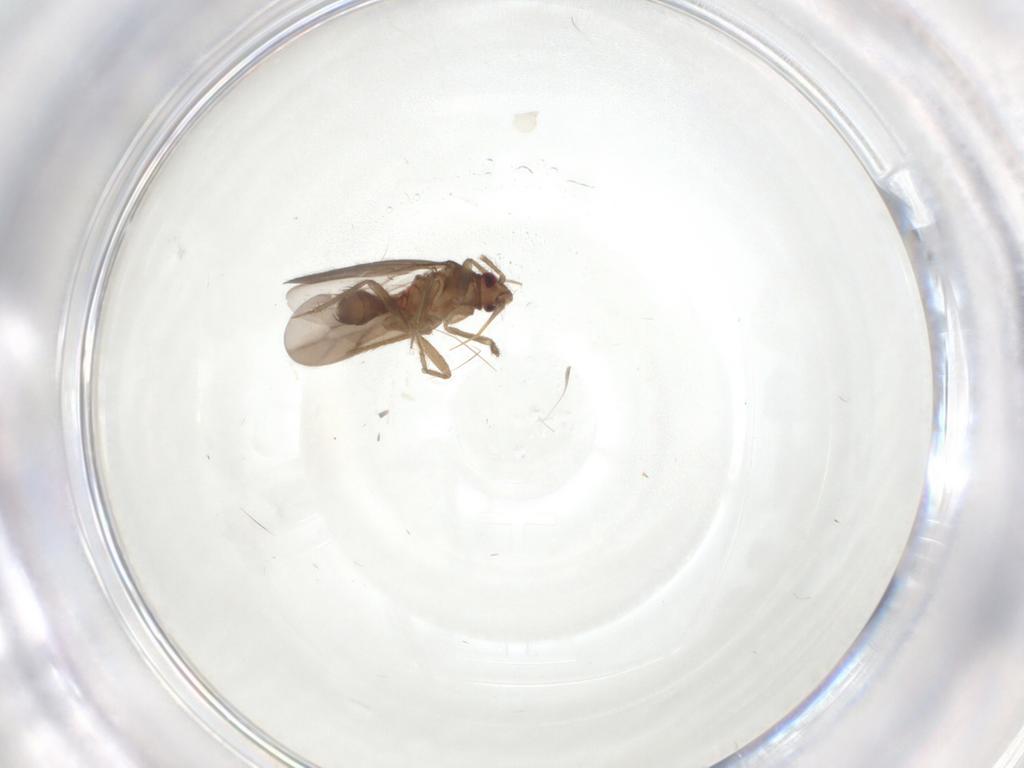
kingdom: Animalia
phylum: Arthropoda
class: Insecta
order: Hemiptera
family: Ceratocombidae
